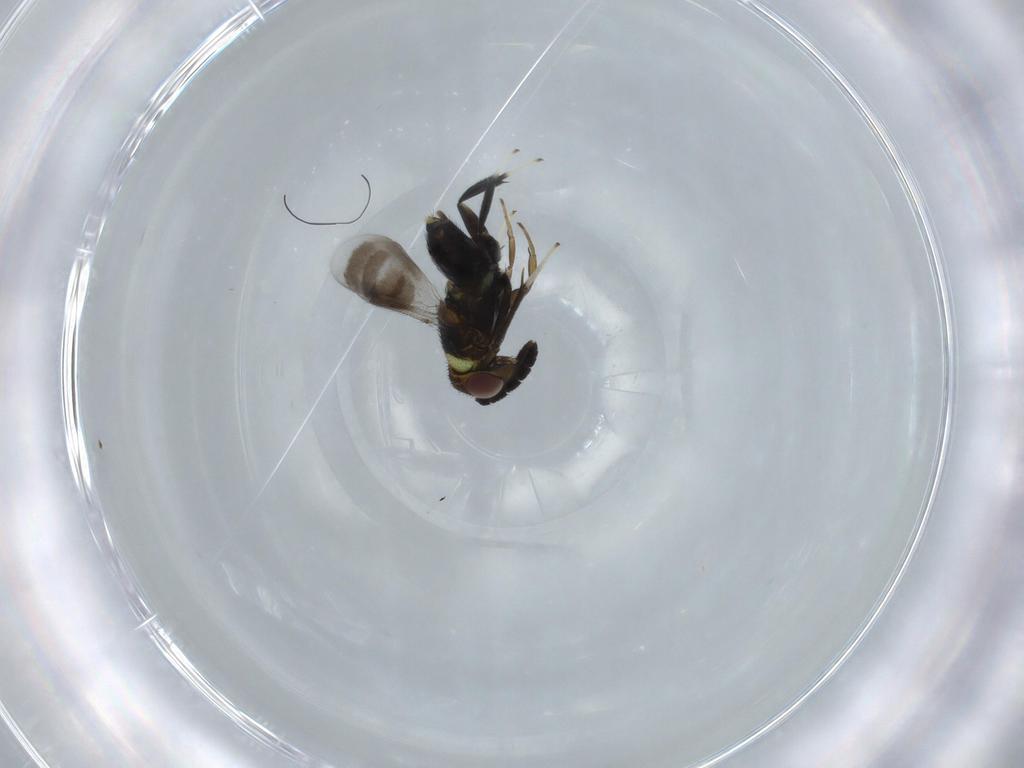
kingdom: Animalia
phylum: Arthropoda
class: Insecta
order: Hymenoptera
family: Aphelinidae
